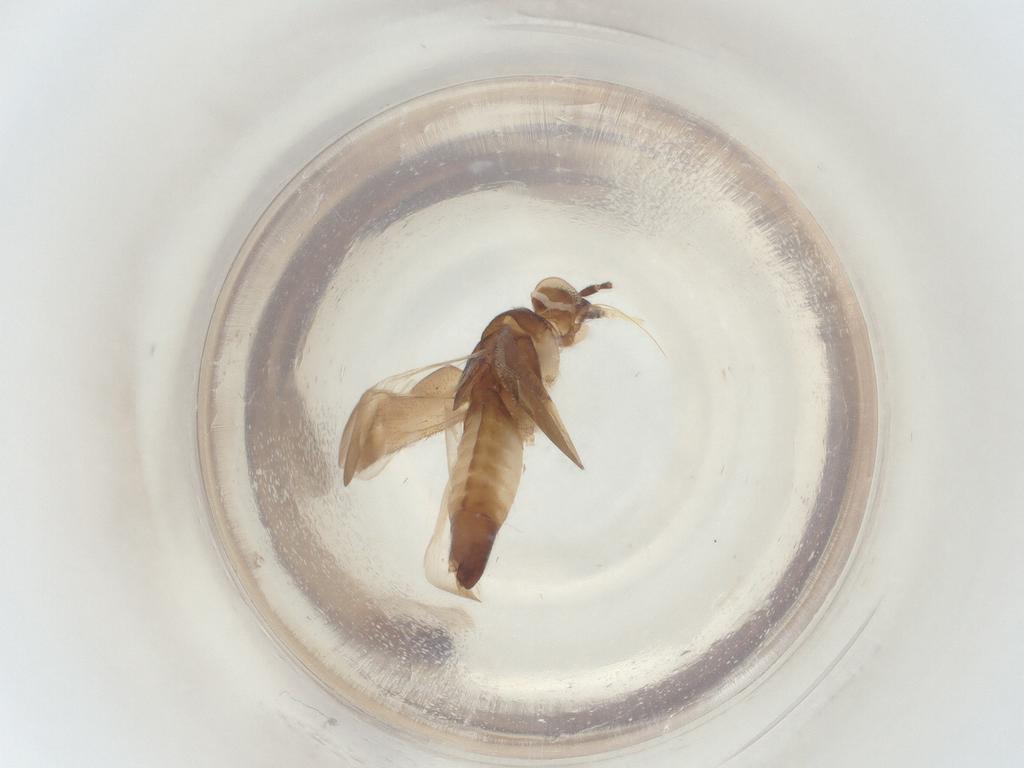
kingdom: Animalia
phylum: Arthropoda
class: Insecta
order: Hemiptera
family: Miridae
